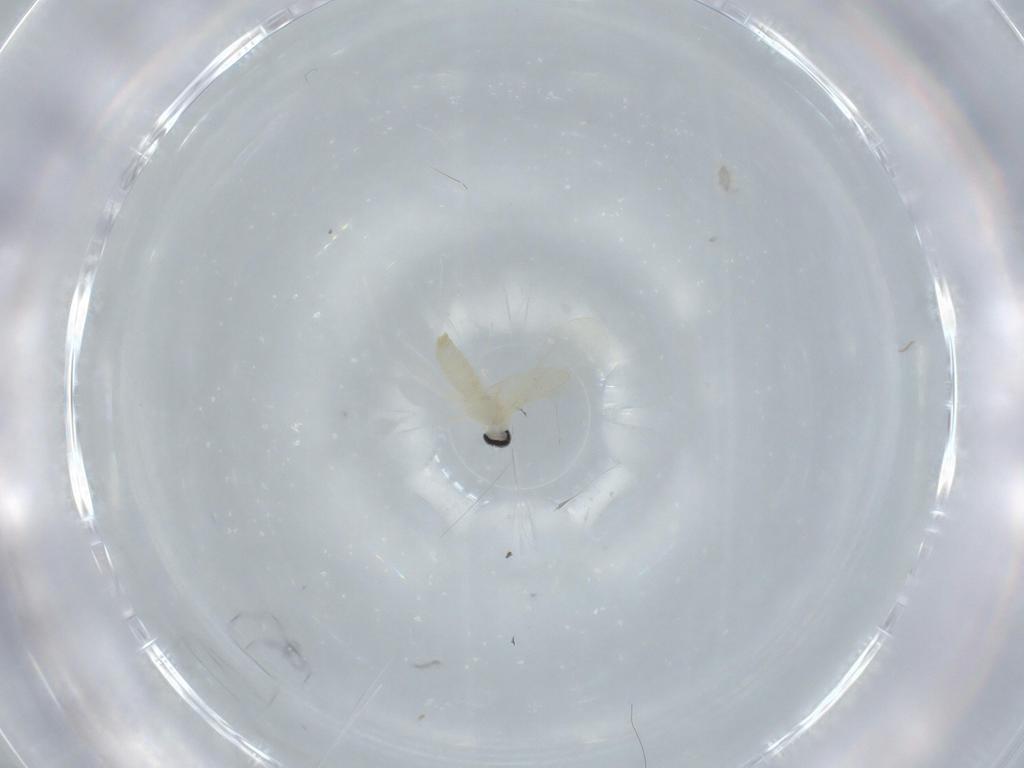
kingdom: Animalia
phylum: Arthropoda
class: Insecta
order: Diptera
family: Cecidomyiidae
